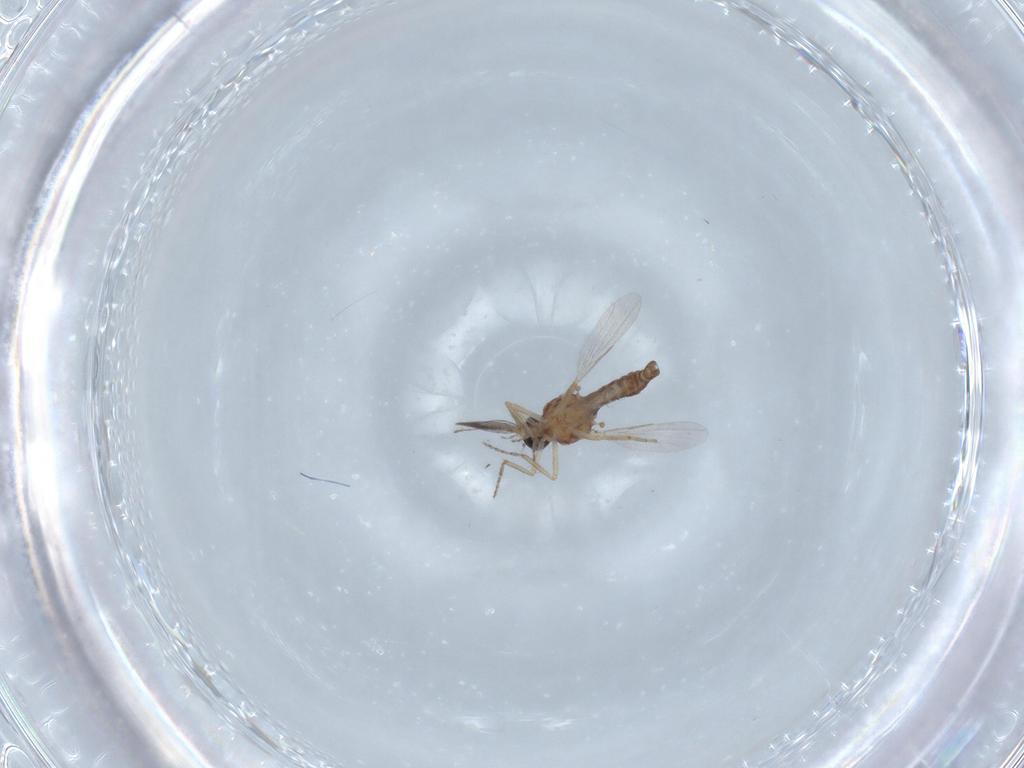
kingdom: Animalia
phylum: Arthropoda
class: Insecta
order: Diptera
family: Ceratopogonidae
